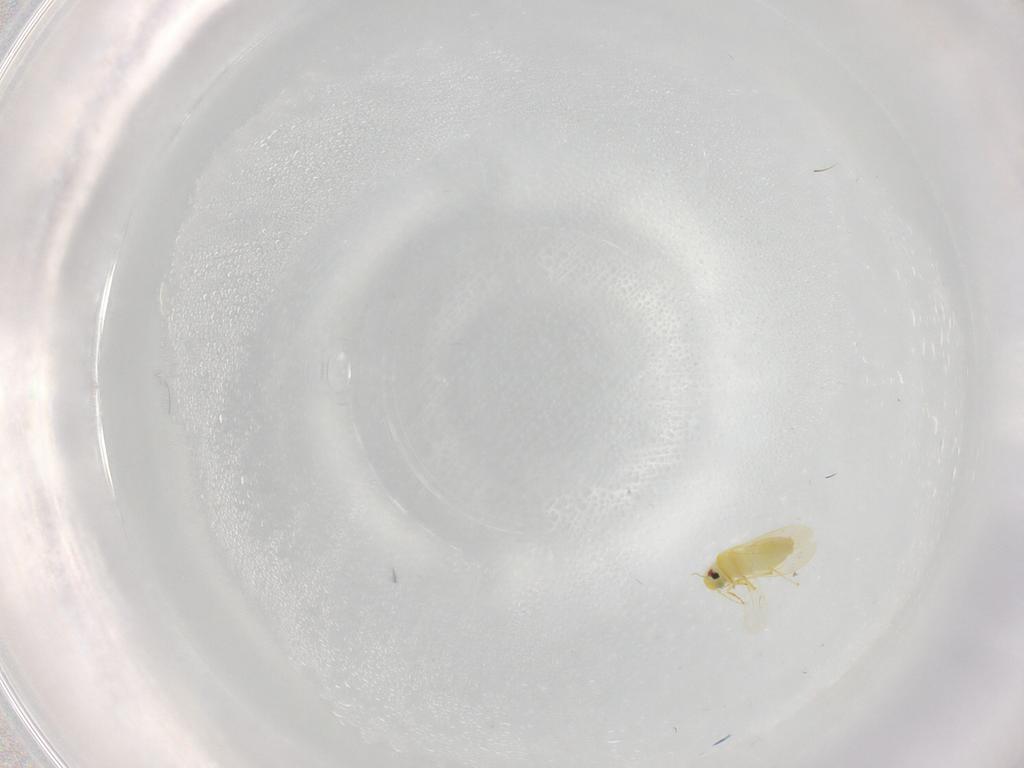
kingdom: Animalia
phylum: Arthropoda
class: Insecta
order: Hemiptera
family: Aleyrodidae
